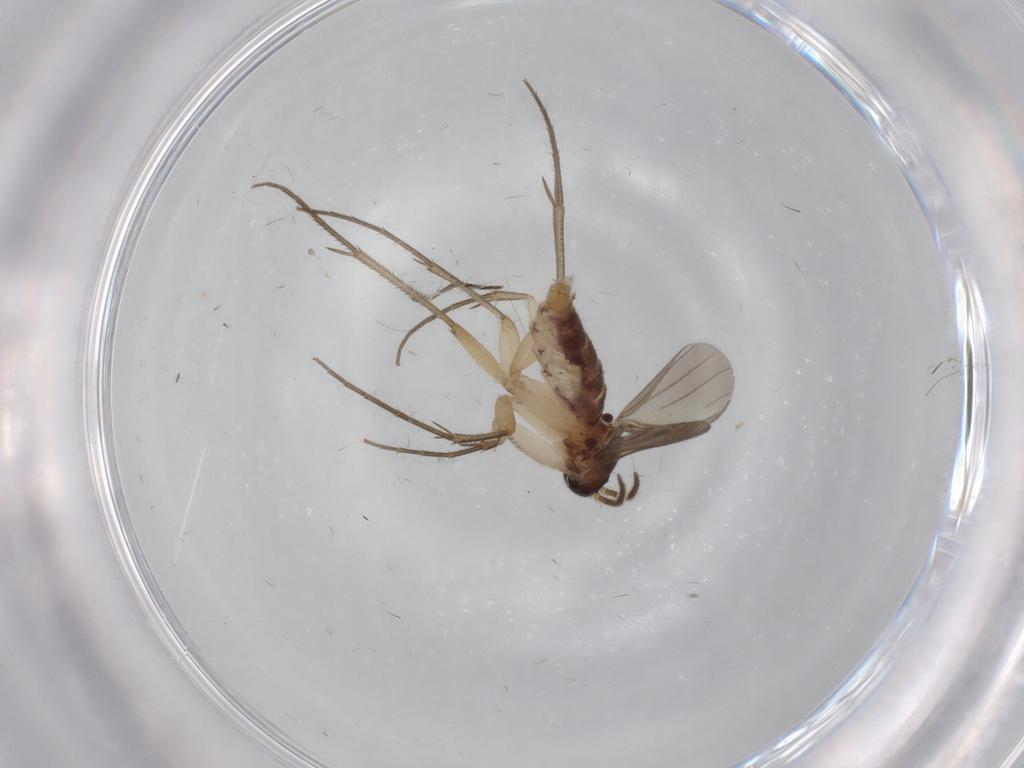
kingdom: Animalia
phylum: Arthropoda
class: Insecta
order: Diptera
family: Mycetophilidae
